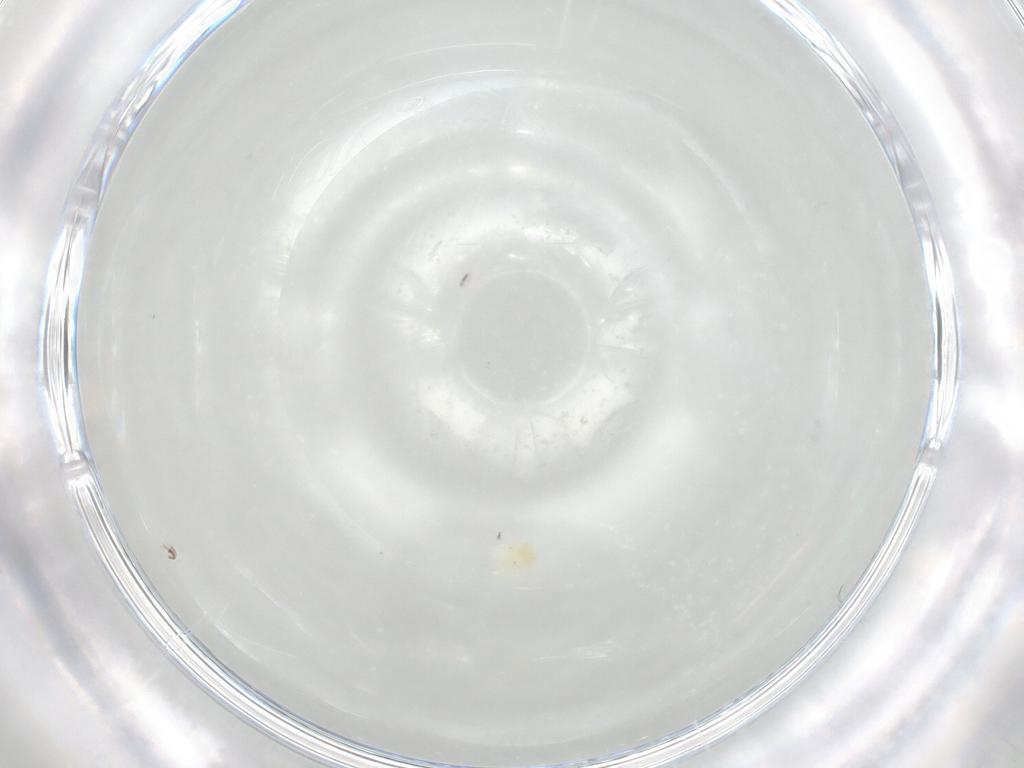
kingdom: Animalia
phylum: Arthropoda
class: Arachnida
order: Trombidiformes
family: Anystidae
